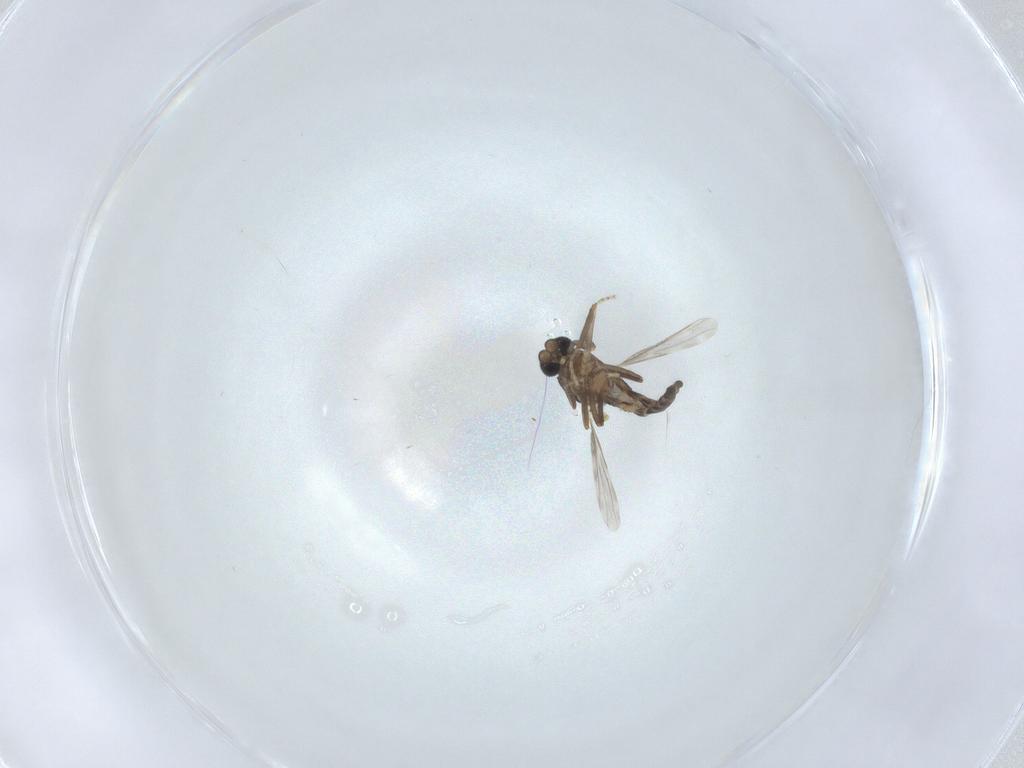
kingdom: Animalia
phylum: Arthropoda
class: Insecta
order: Diptera
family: Ceratopogonidae
